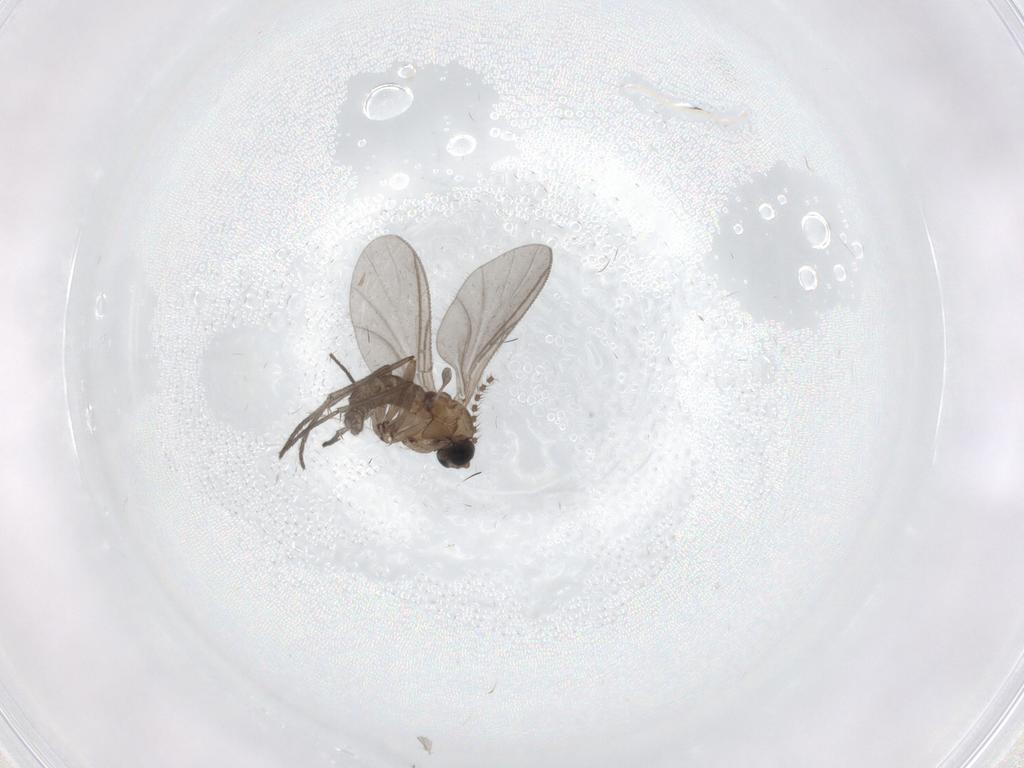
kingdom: Animalia
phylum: Arthropoda
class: Insecta
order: Diptera
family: Sciaridae
